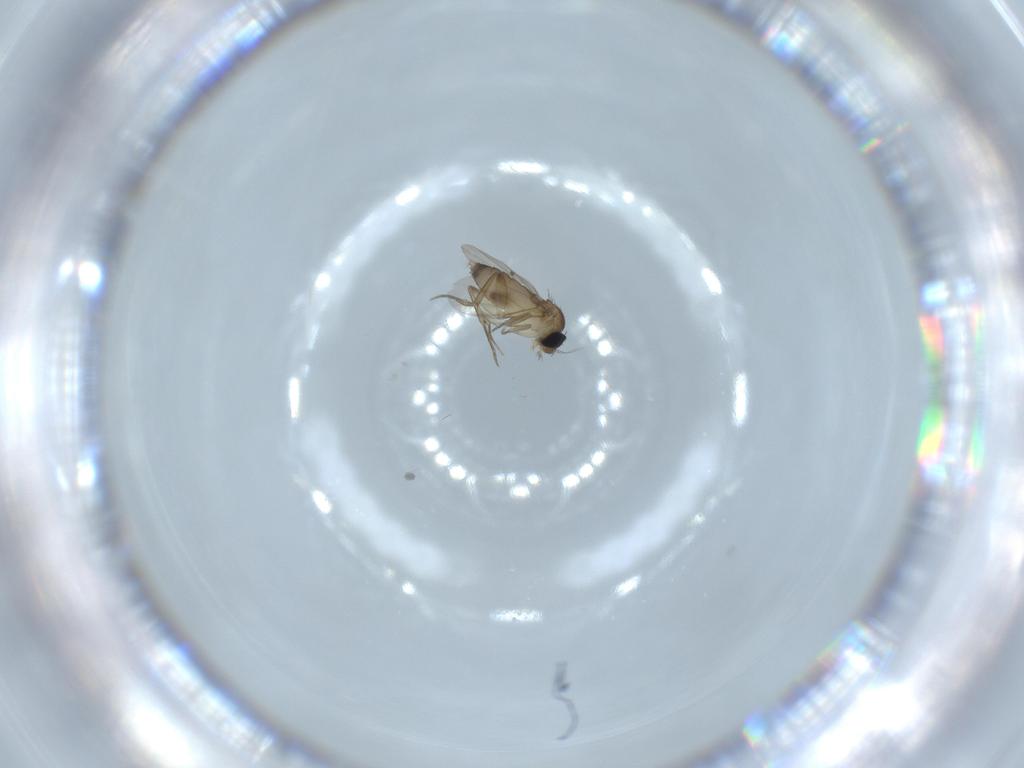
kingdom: Animalia
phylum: Arthropoda
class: Insecta
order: Diptera
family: Phoridae
